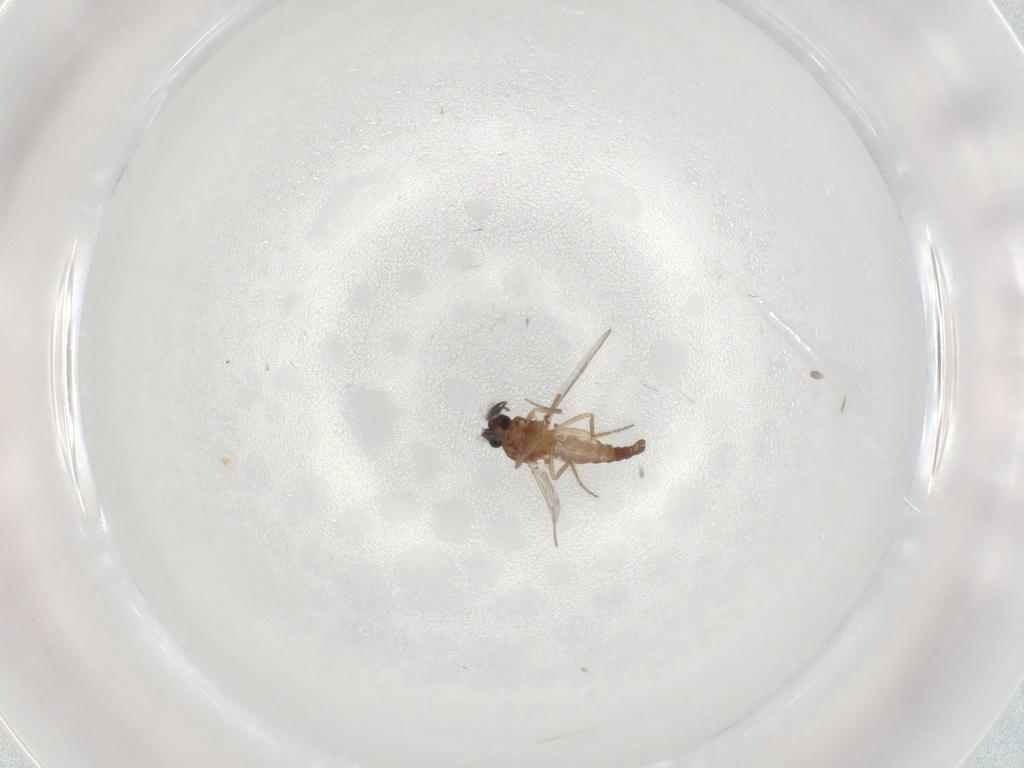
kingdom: Animalia
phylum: Arthropoda
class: Insecta
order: Diptera
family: Ceratopogonidae
